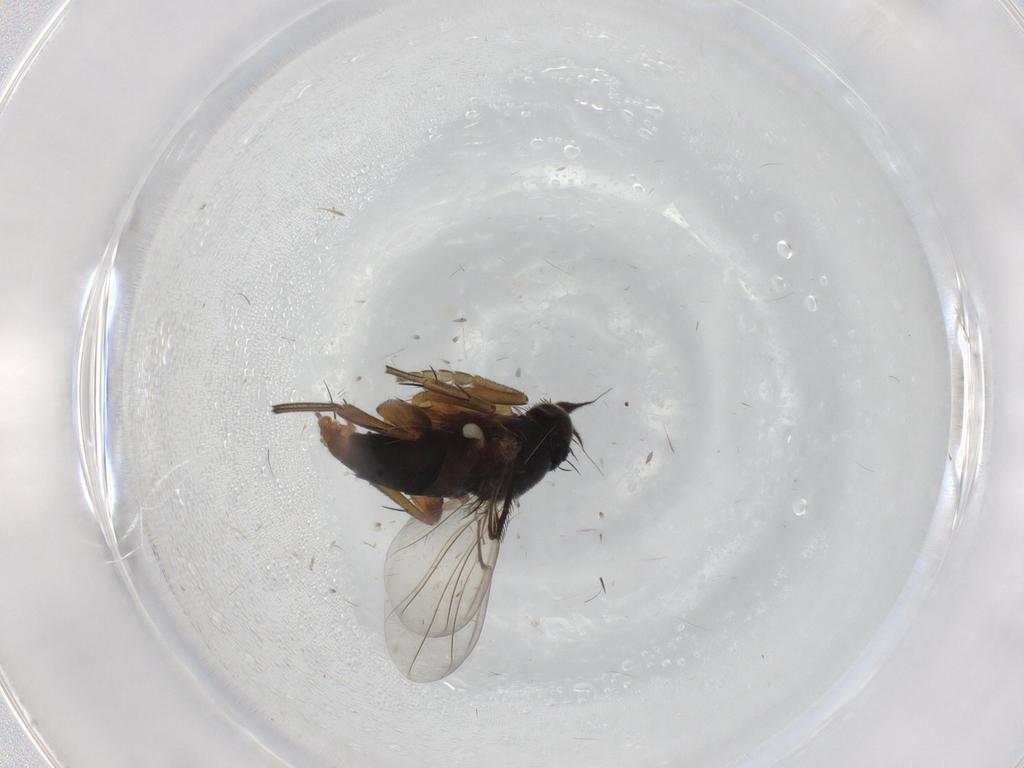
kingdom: Animalia
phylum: Arthropoda
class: Insecta
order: Diptera
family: Phoridae
